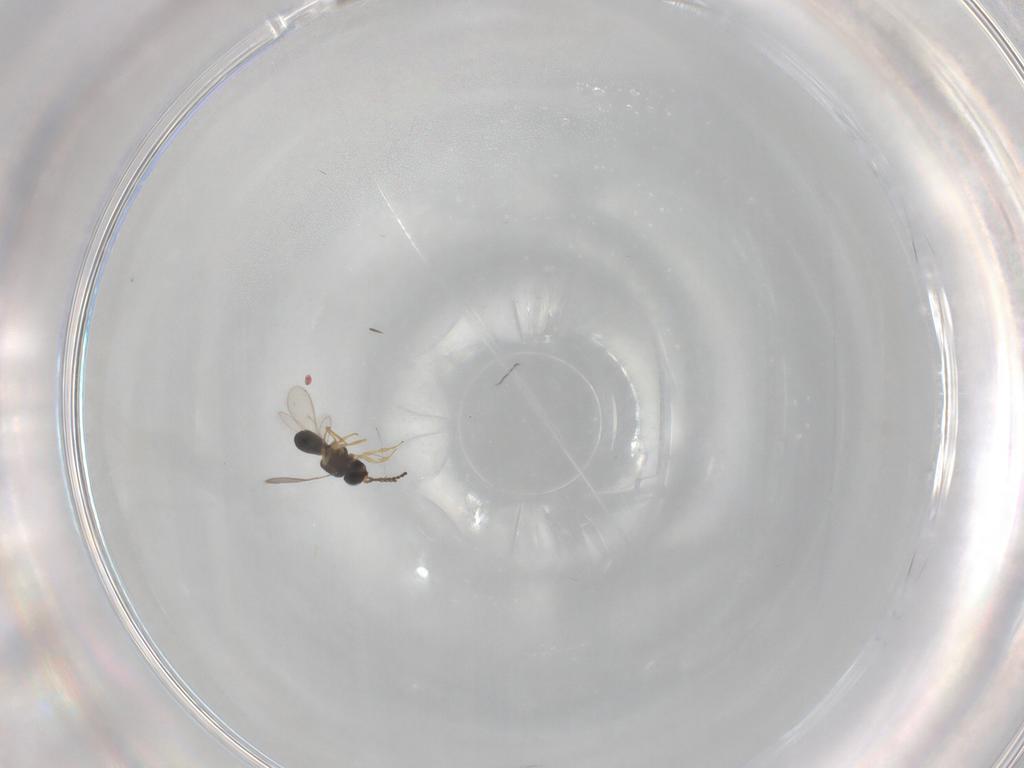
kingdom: Animalia
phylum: Arthropoda
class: Insecta
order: Hymenoptera
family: Scelionidae
